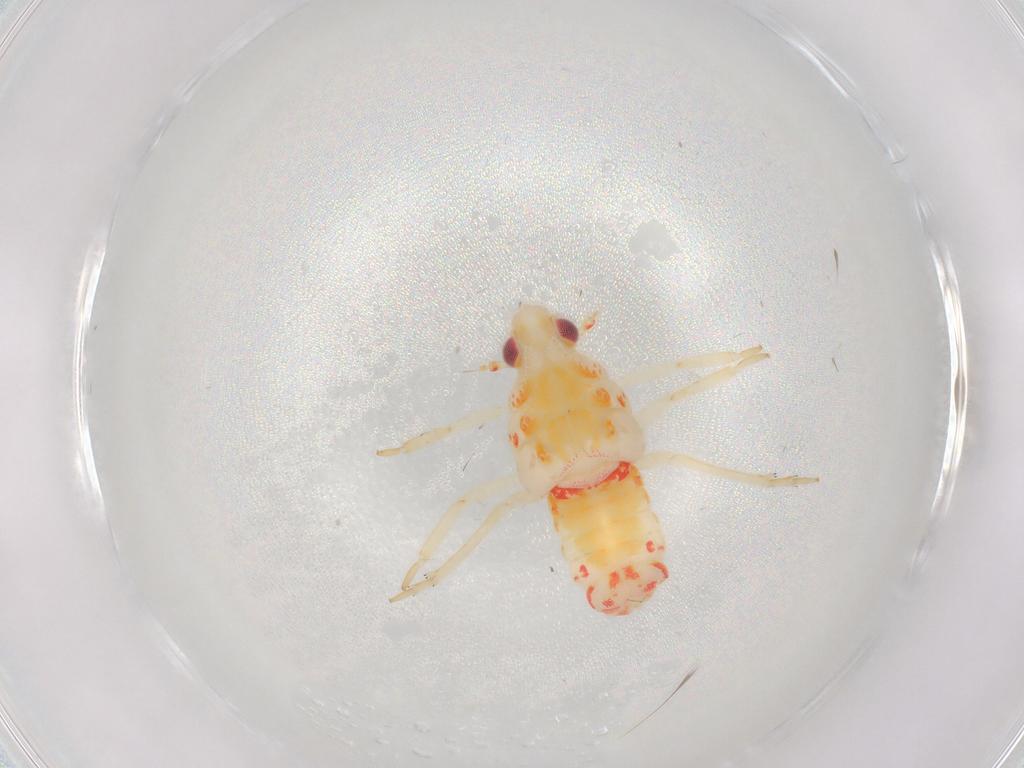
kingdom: Animalia
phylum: Arthropoda
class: Insecta
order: Hemiptera
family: Flatidae
